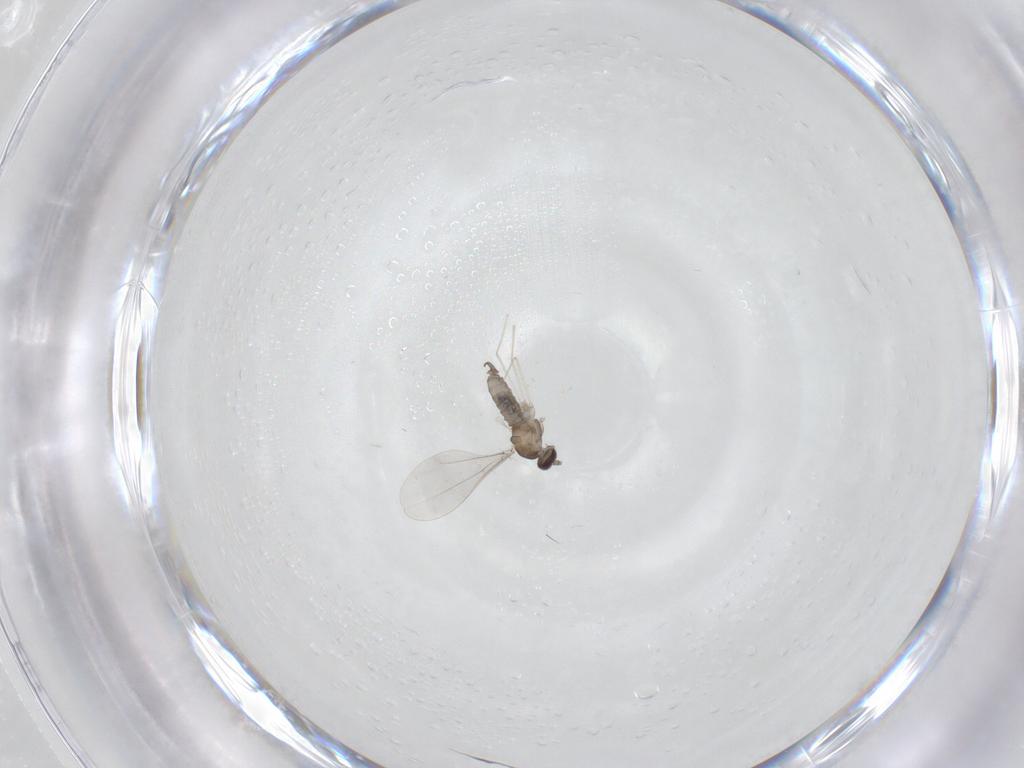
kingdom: Animalia
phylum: Arthropoda
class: Insecta
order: Diptera
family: Cecidomyiidae
